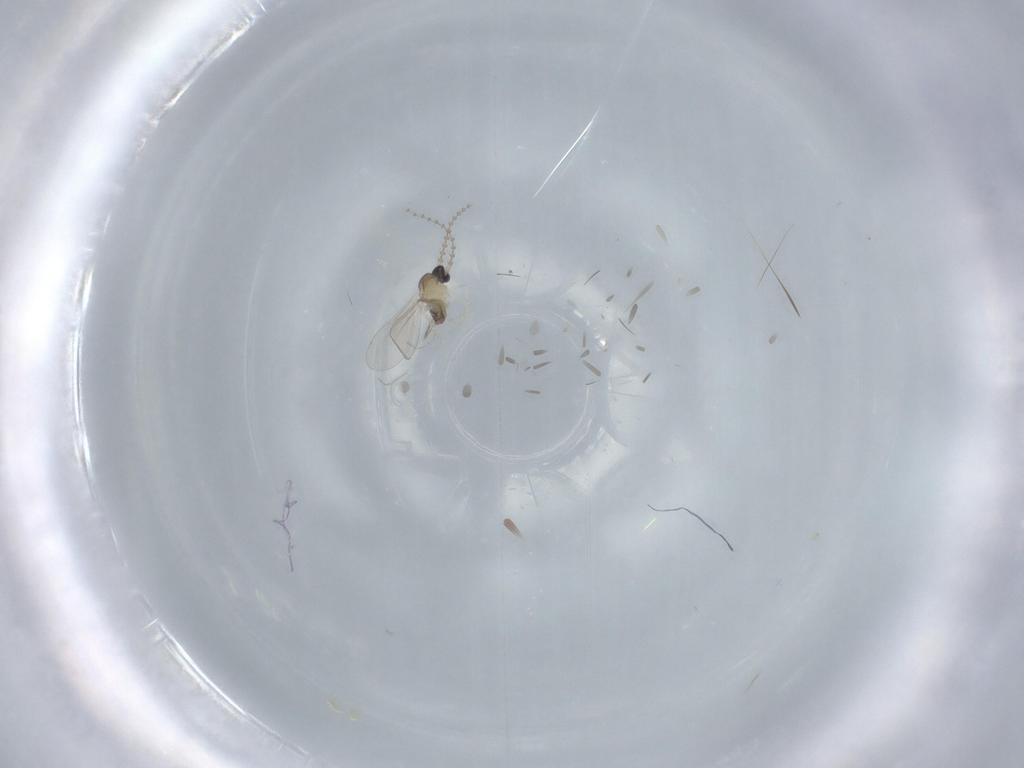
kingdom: Animalia
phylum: Arthropoda
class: Insecta
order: Diptera
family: Cecidomyiidae
